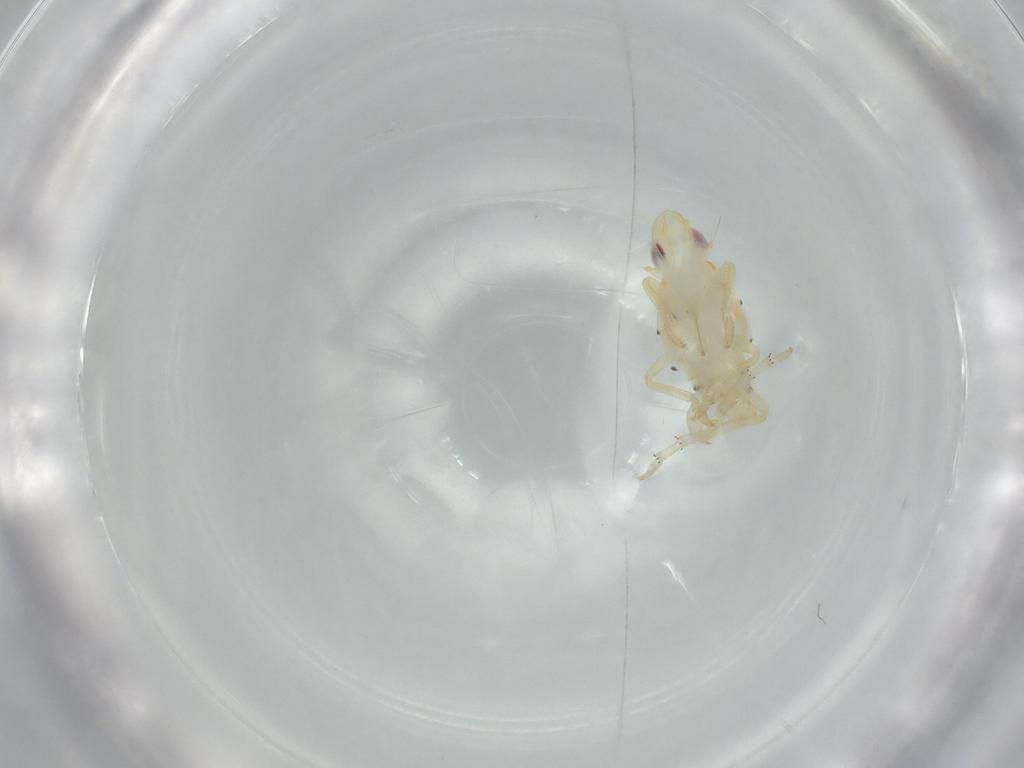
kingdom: Animalia
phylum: Arthropoda
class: Insecta
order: Hemiptera
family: Tropiduchidae
